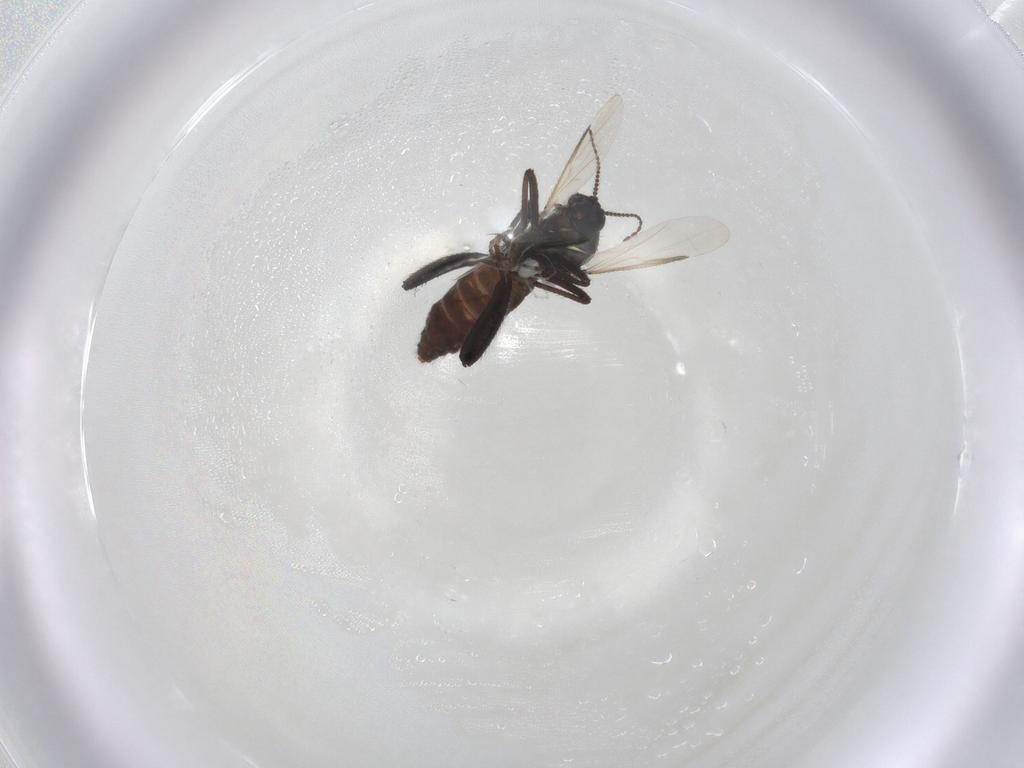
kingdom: Animalia
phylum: Arthropoda
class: Insecta
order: Diptera
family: Ceratopogonidae
